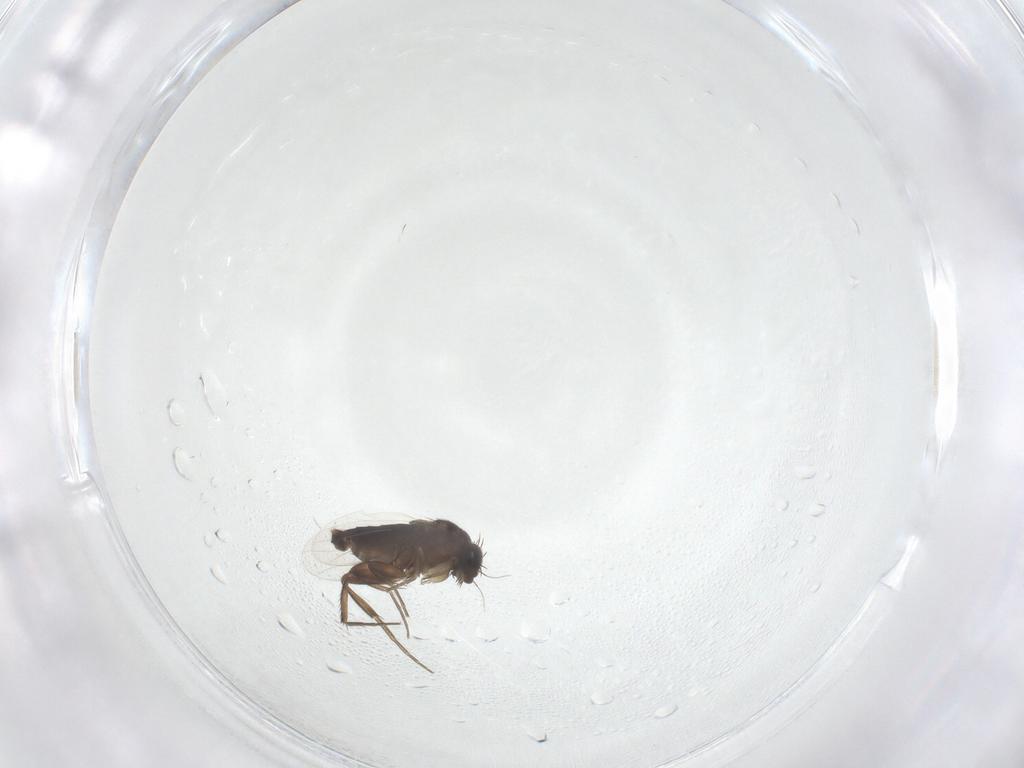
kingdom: Animalia
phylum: Arthropoda
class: Insecta
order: Diptera
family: Phoridae
